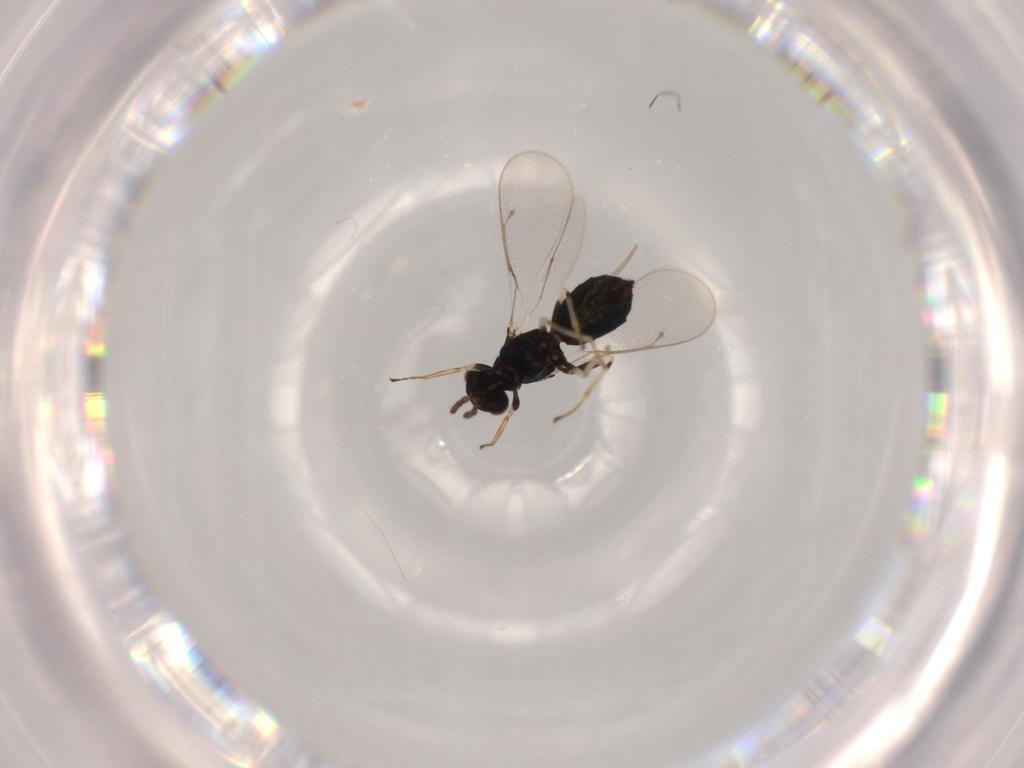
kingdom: Animalia
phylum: Arthropoda
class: Insecta
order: Hymenoptera
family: Eulophidae
